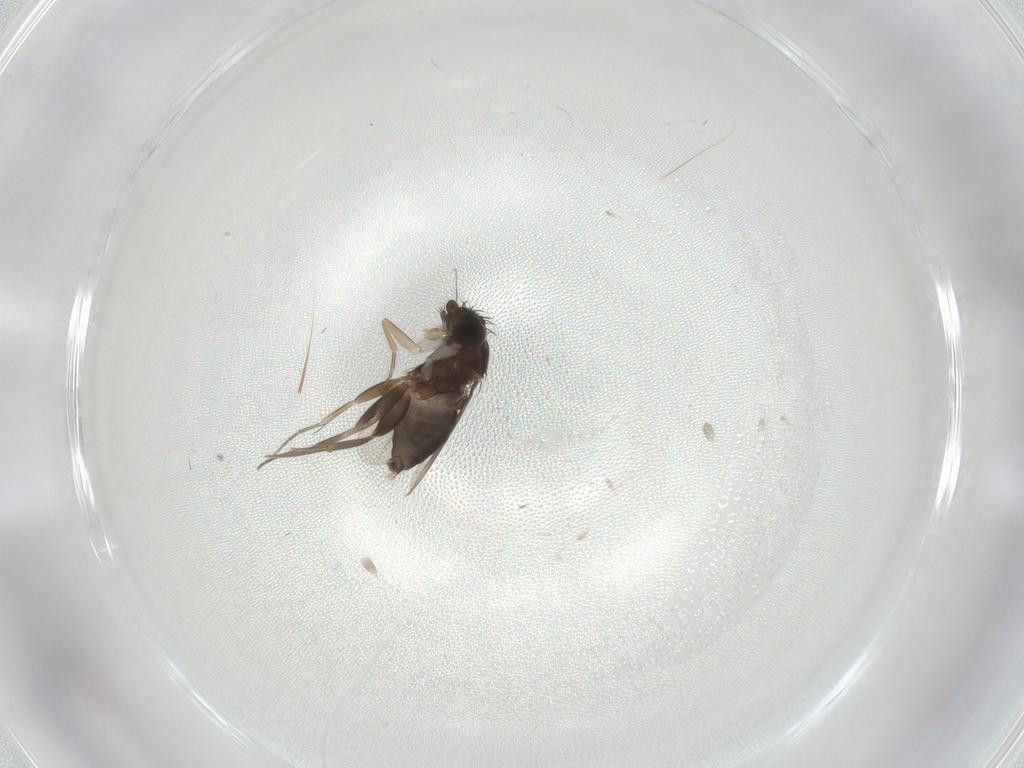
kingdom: Animalia
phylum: Arthropoda
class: Insecta
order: Diptera
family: Phoridae
